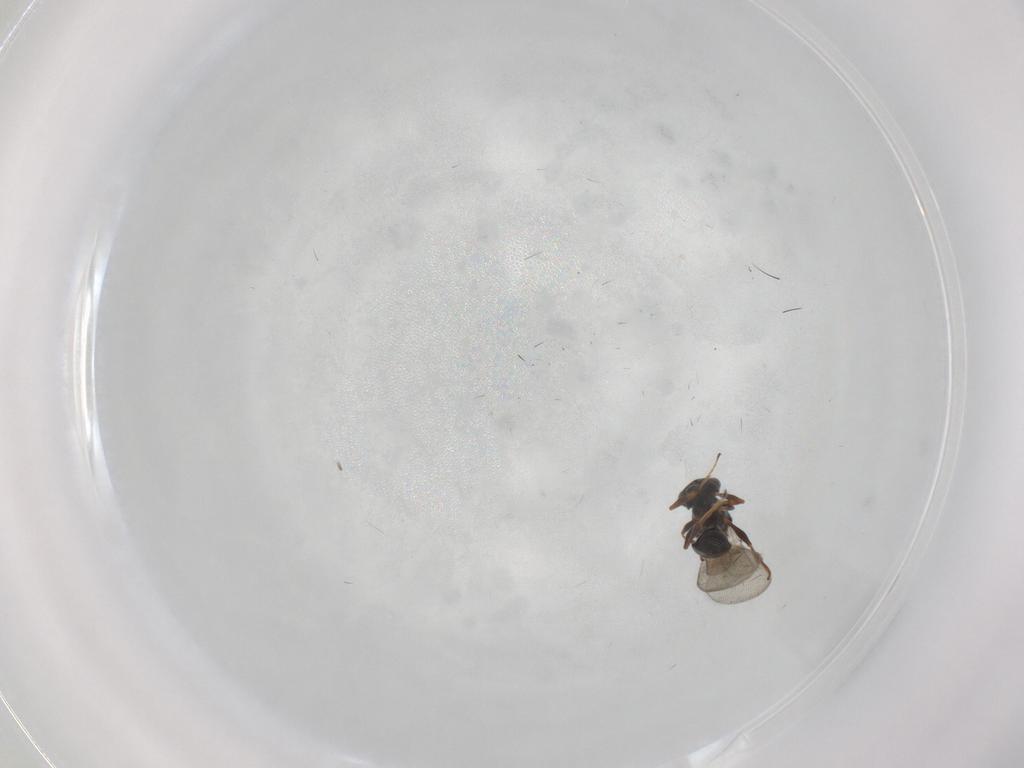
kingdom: Animalia
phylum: Arthropoda
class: Insecta
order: Hymenoptera
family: Platygastridae
